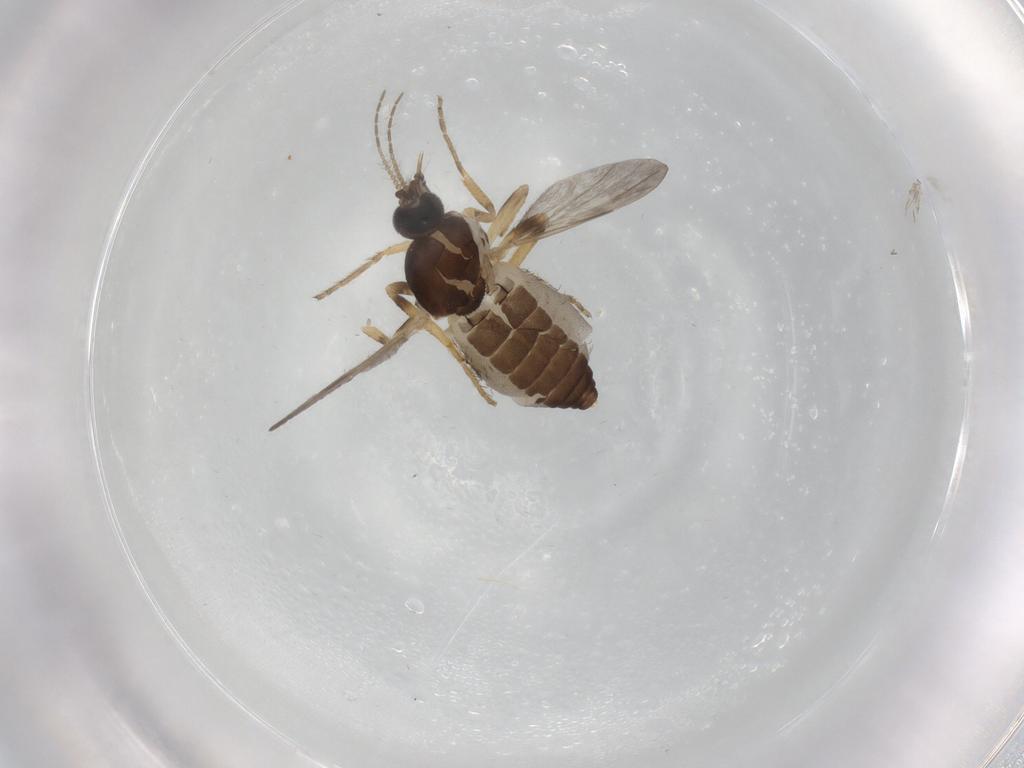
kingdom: Animalia
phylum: Arthropoda
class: Insecta
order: Diptera
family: Ceratopogonidae
